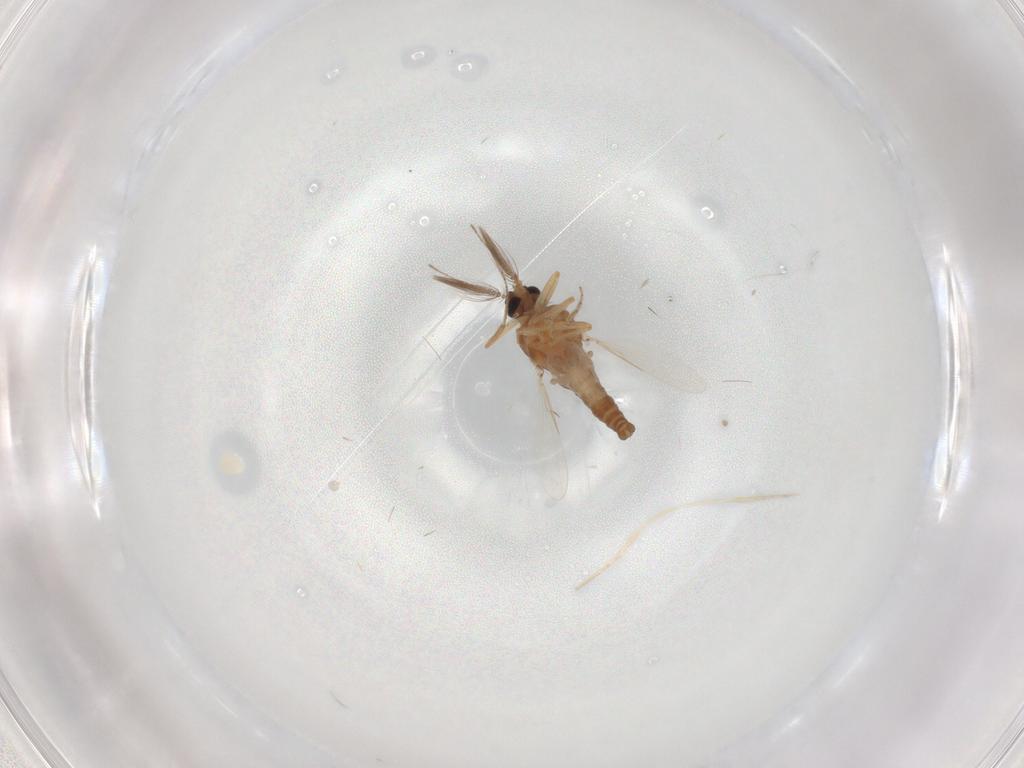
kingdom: Animalia
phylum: Arthropoda
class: Insecta
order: Diptera
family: Ceratopogonidae
